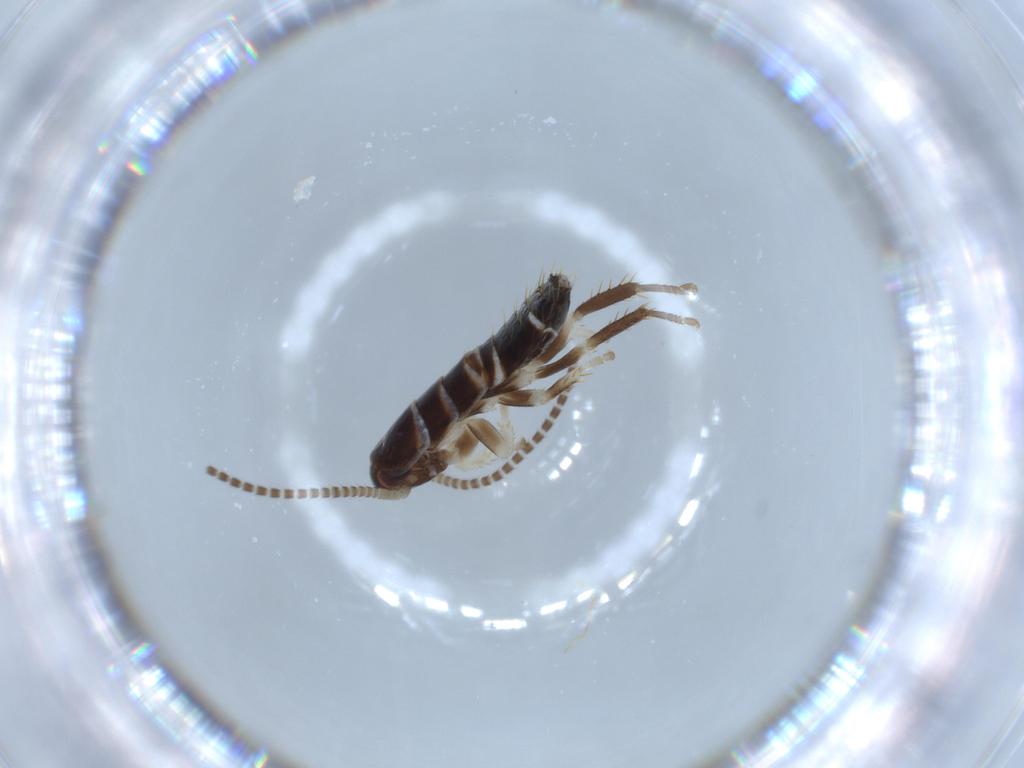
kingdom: Animalia
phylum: Arthropoda
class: Insecta
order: Blattodea
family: Ectobiidae
